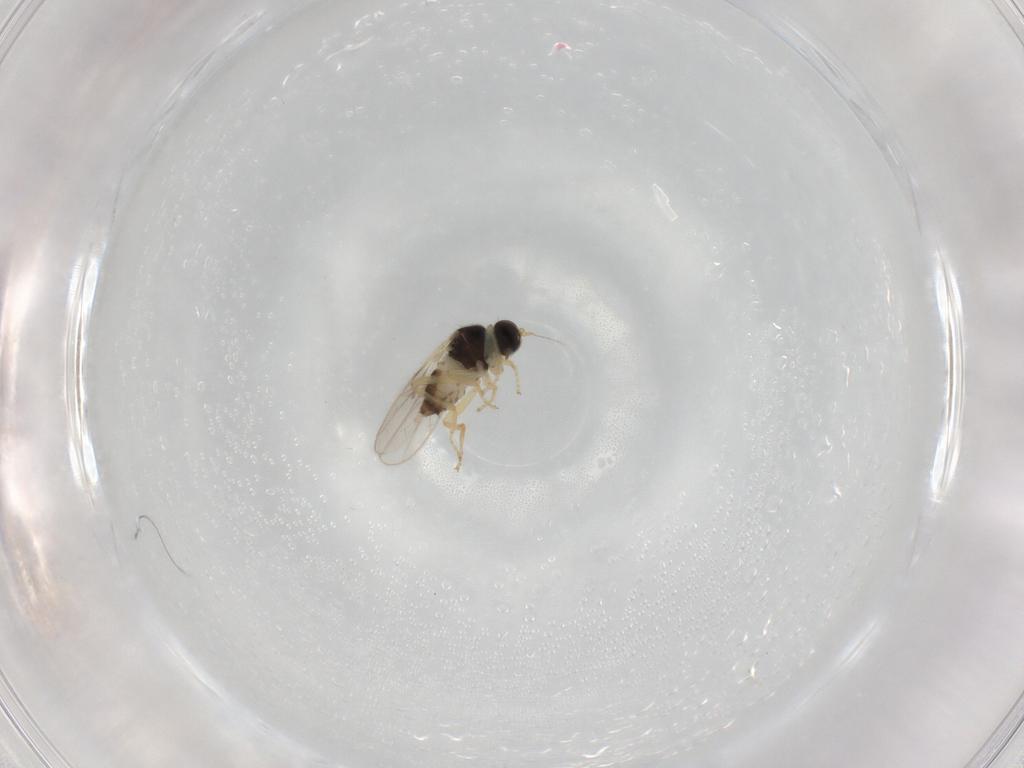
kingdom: Animalia
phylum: Arthropoda
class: Insecta
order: Diptera
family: Hybotidae
